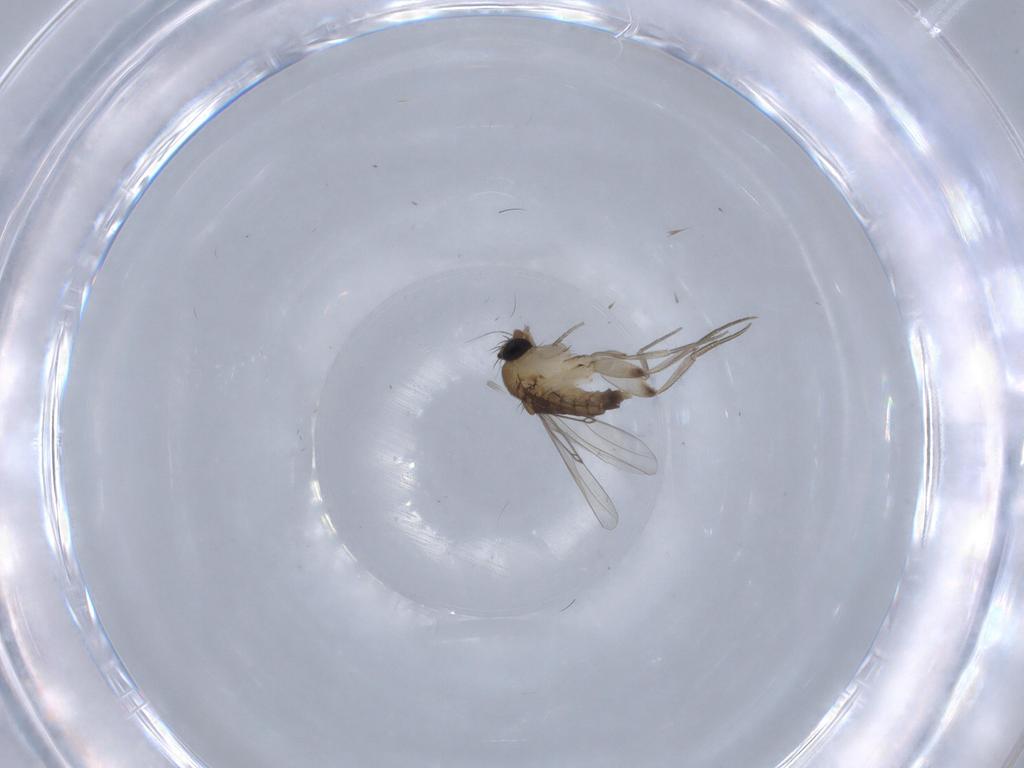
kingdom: Animalia
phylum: Arthropoda
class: Insecta
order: Diptera
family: Phoridae
